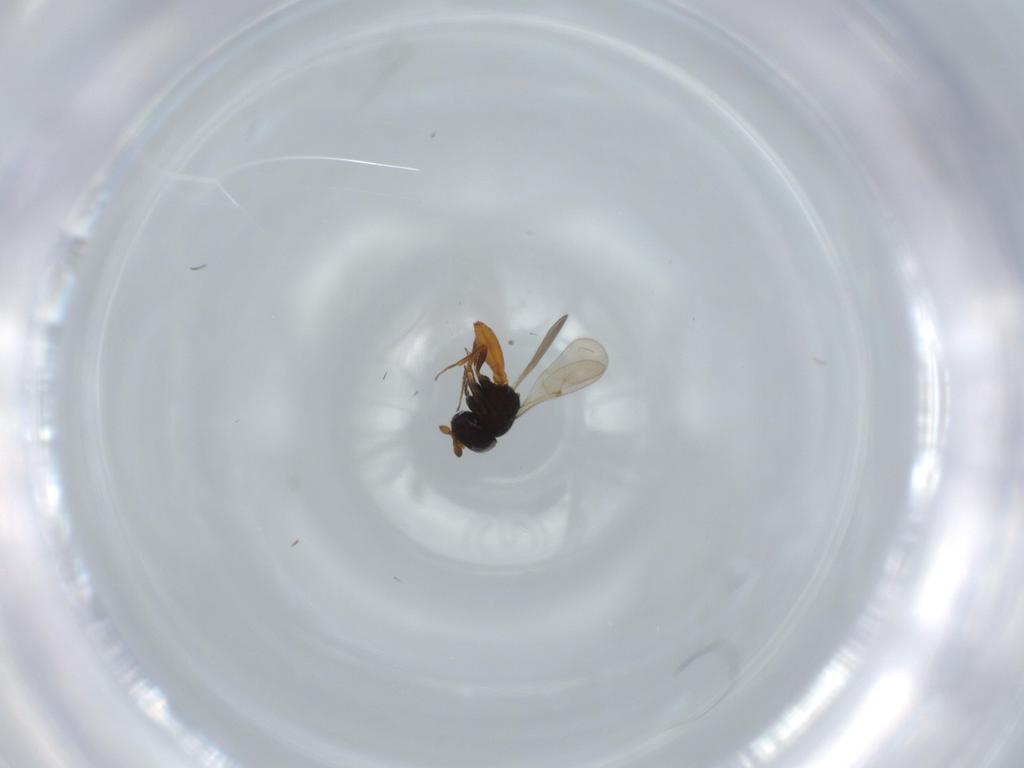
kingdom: Animalia
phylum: Arthropoda
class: Insecta
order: Hymenoptera
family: Scelionidae
